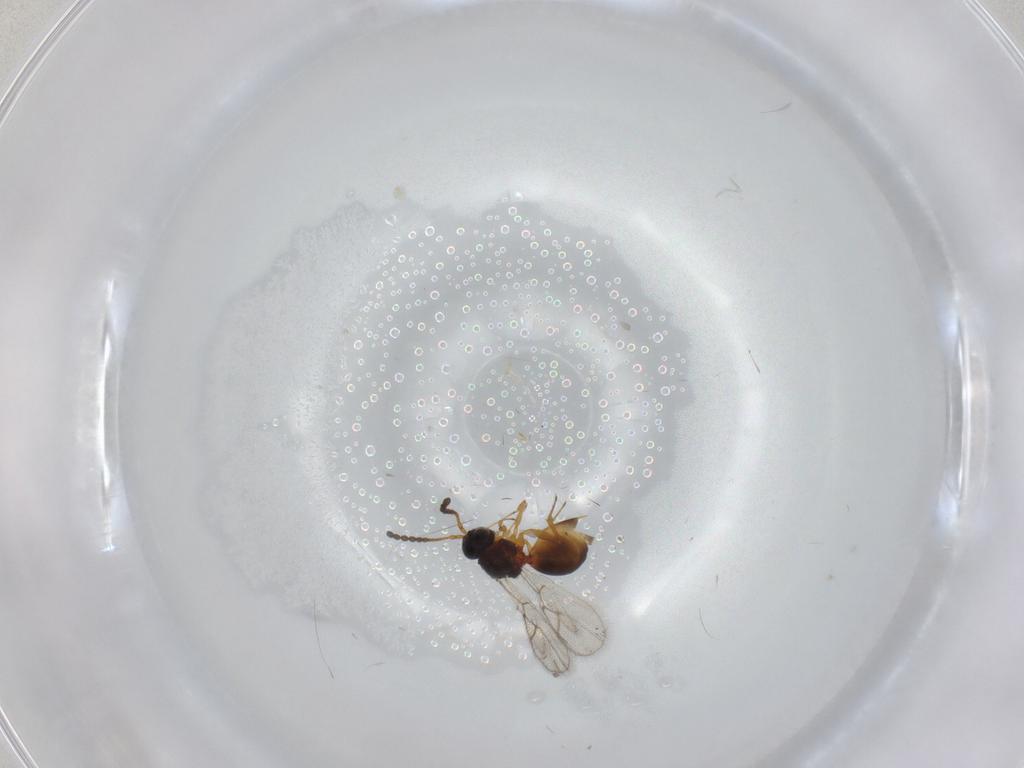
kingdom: Animalia
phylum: Arthropoda
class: Insecta
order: Hymenoptera
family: Figitidae
